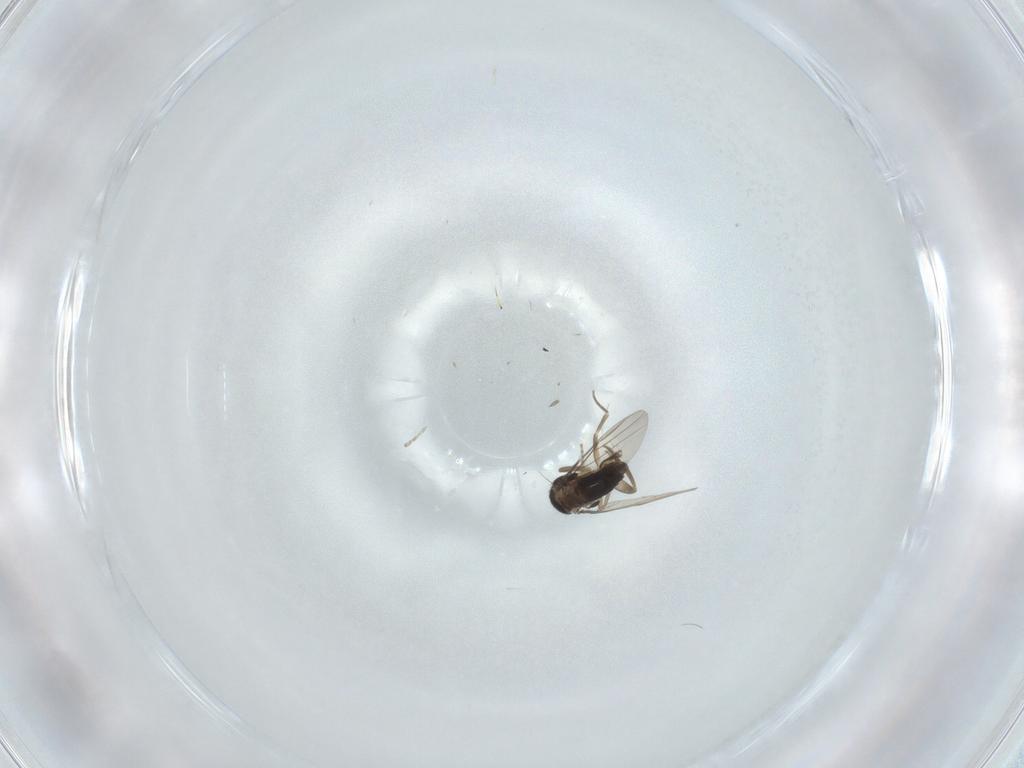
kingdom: Animalia
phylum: Arthropoda
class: Insecta
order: Diptera
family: Cecidomyiidae
